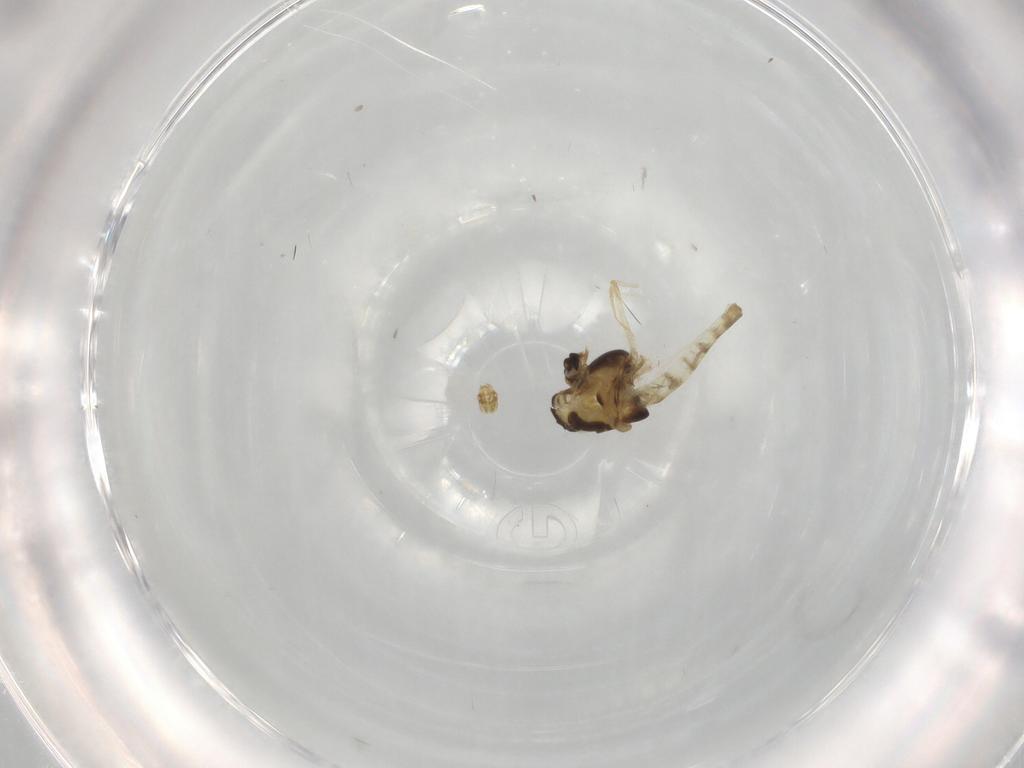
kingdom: Animalia
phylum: Arthropoda
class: Insecta
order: Diptera
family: Chironomidae
